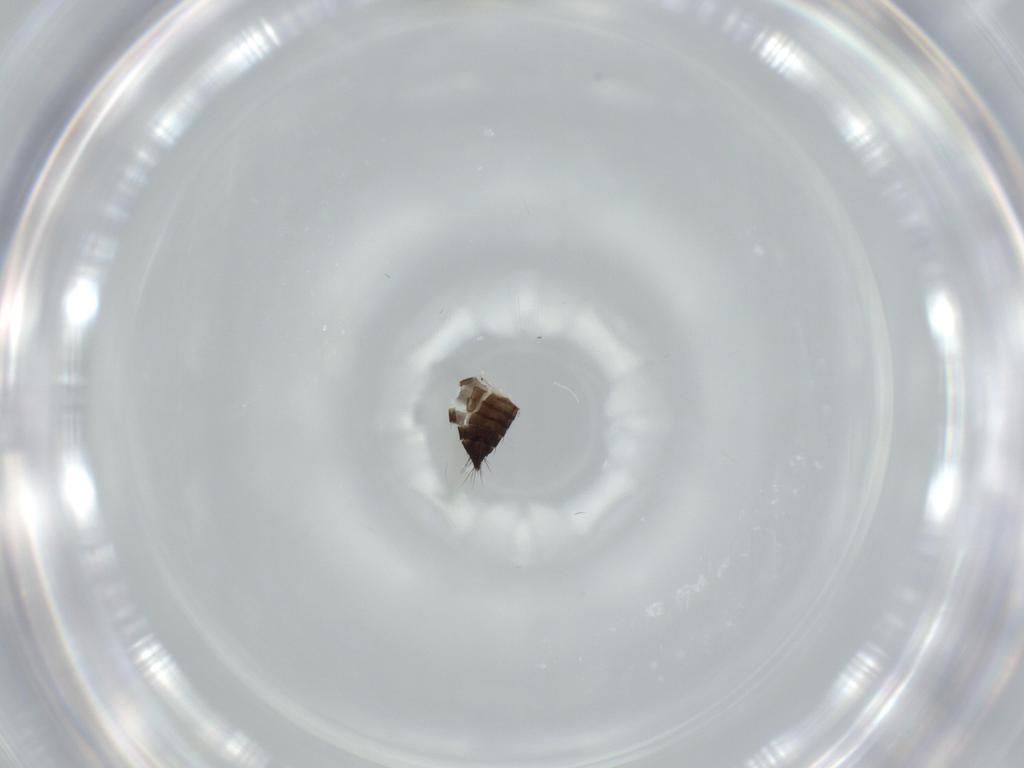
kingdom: Animalia
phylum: Arthropoda
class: Insecta
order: Thysanoptera
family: Thripidae
